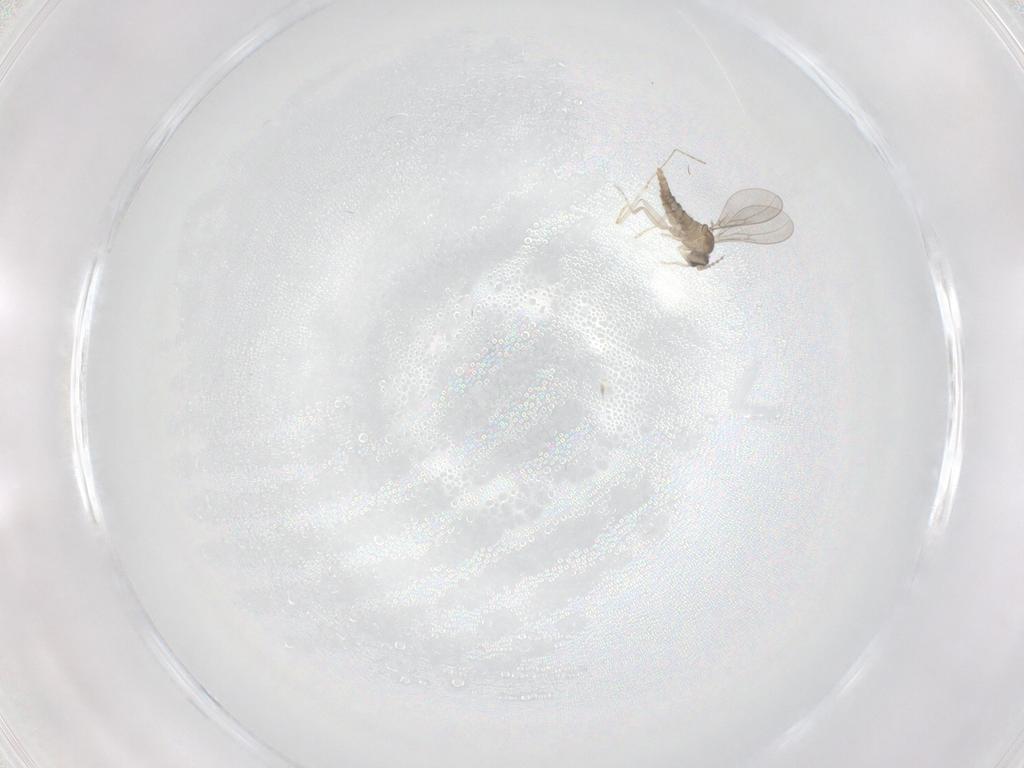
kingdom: Animalia
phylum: Arthropoda
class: Insecta
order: Diptera
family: Cecidomyiidae
